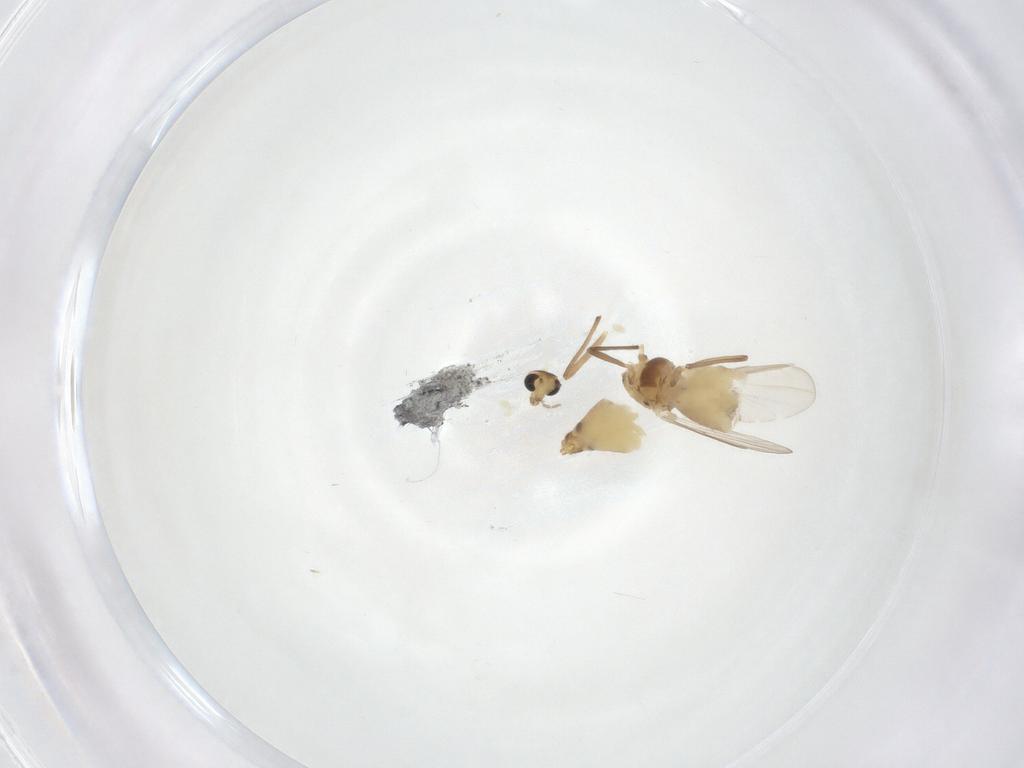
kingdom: Animalia
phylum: Arthropoda
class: Insecta
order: Diptera
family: Chironomidae
